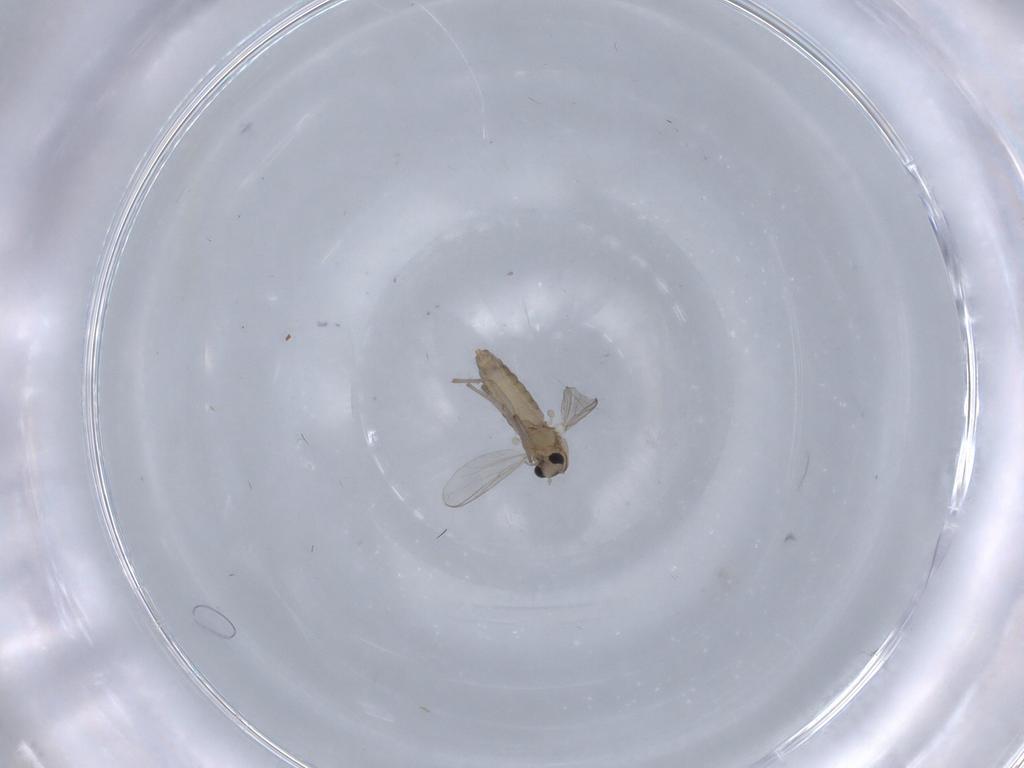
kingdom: Animalia
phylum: Arthropoda
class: Insecta
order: Diptera
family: Chironomidae
